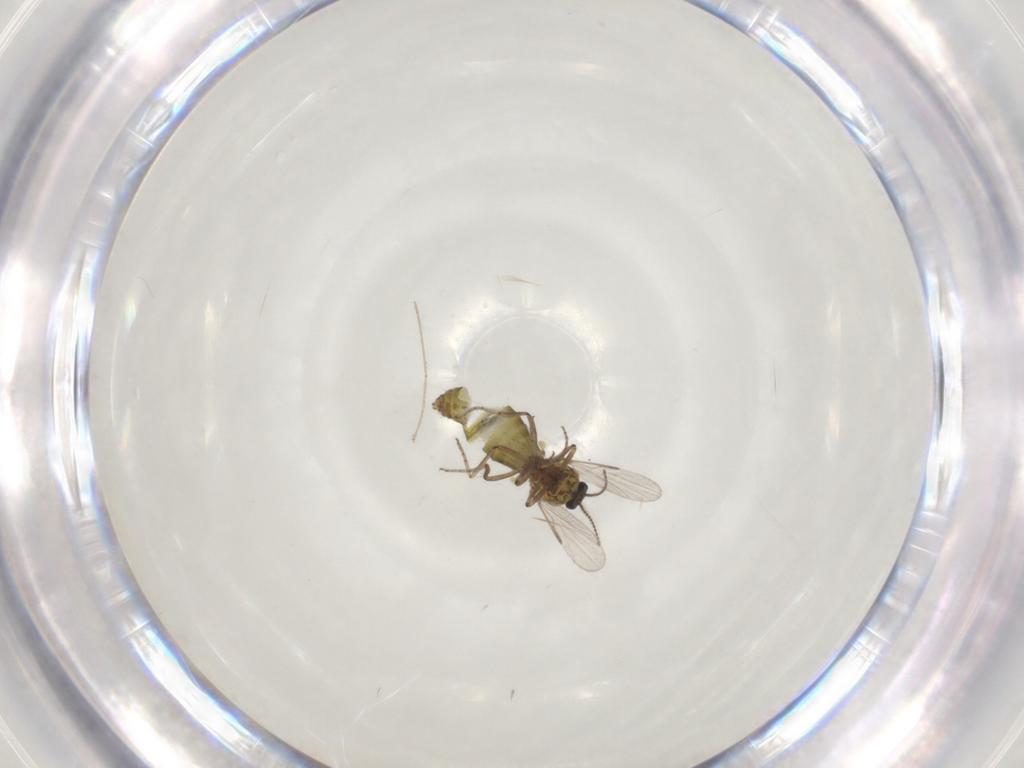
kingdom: Animalia
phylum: Arthropoda
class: Insecta
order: Diptera
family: Ceratopogonidae
